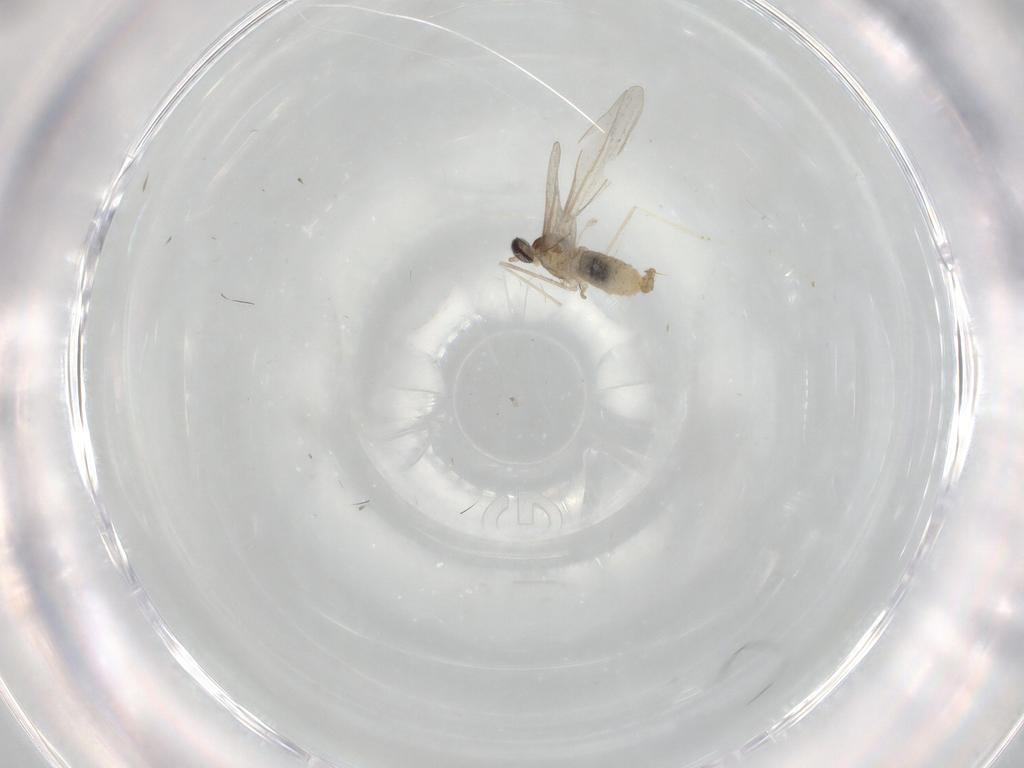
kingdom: Animalia
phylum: Arthropoda
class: Insecta
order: Diptera
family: Cecidomyiidae
